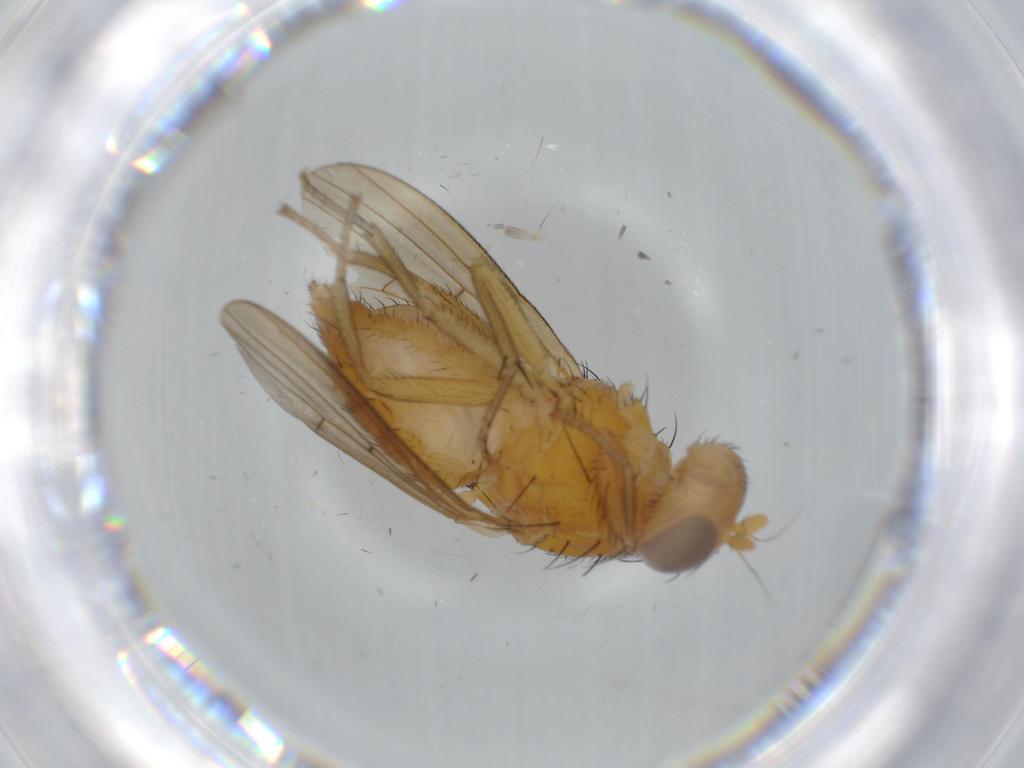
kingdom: Animalia
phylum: Arthropoda
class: Insecta
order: Diptera
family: Hybotidae
